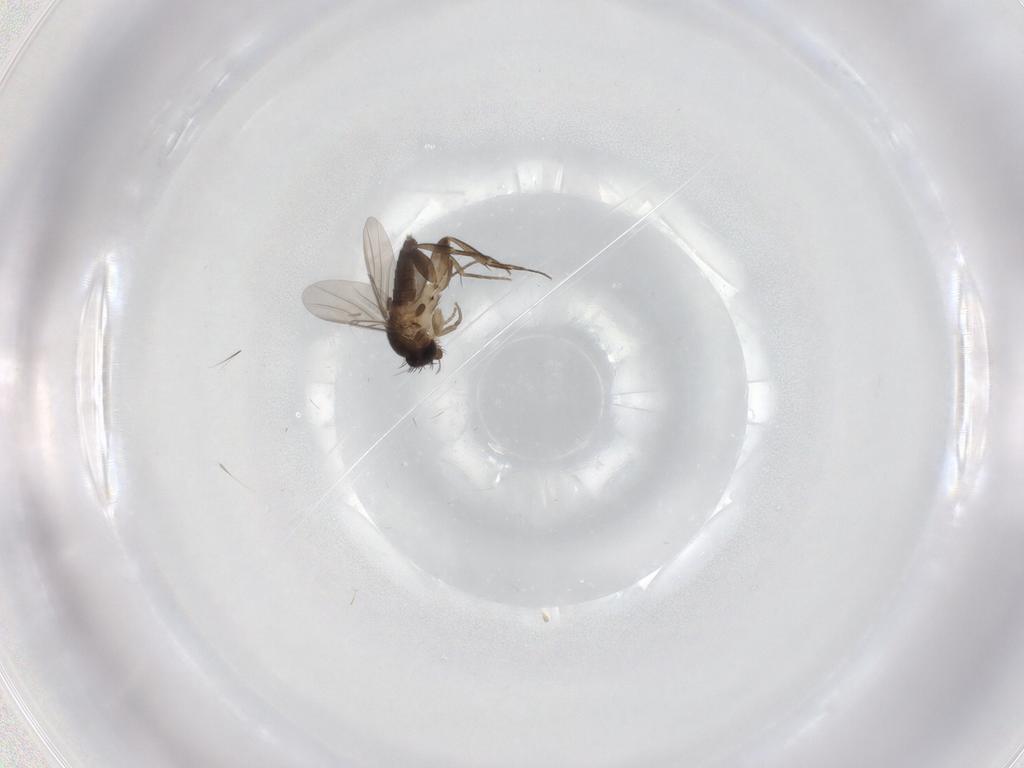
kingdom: Animalia
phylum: Arthropoda
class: Insecta
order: Diptera
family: Phoridae
